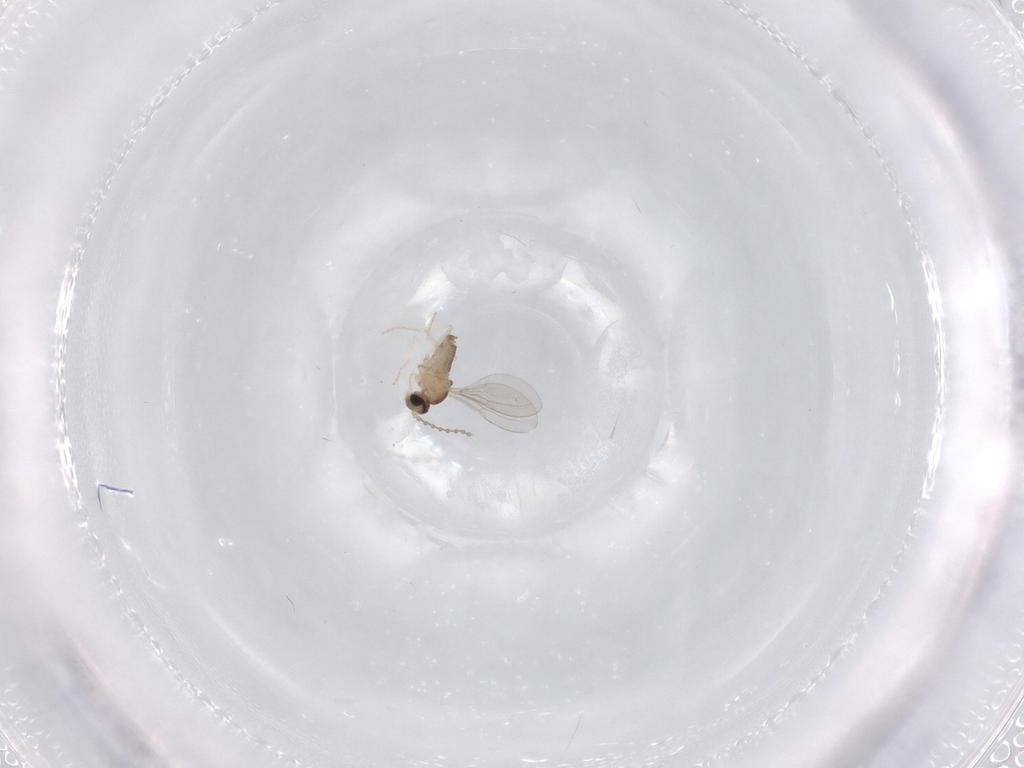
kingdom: Animalia
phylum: Arthropoda
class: Insecta
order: Diptera
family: Cecidomyiidae
